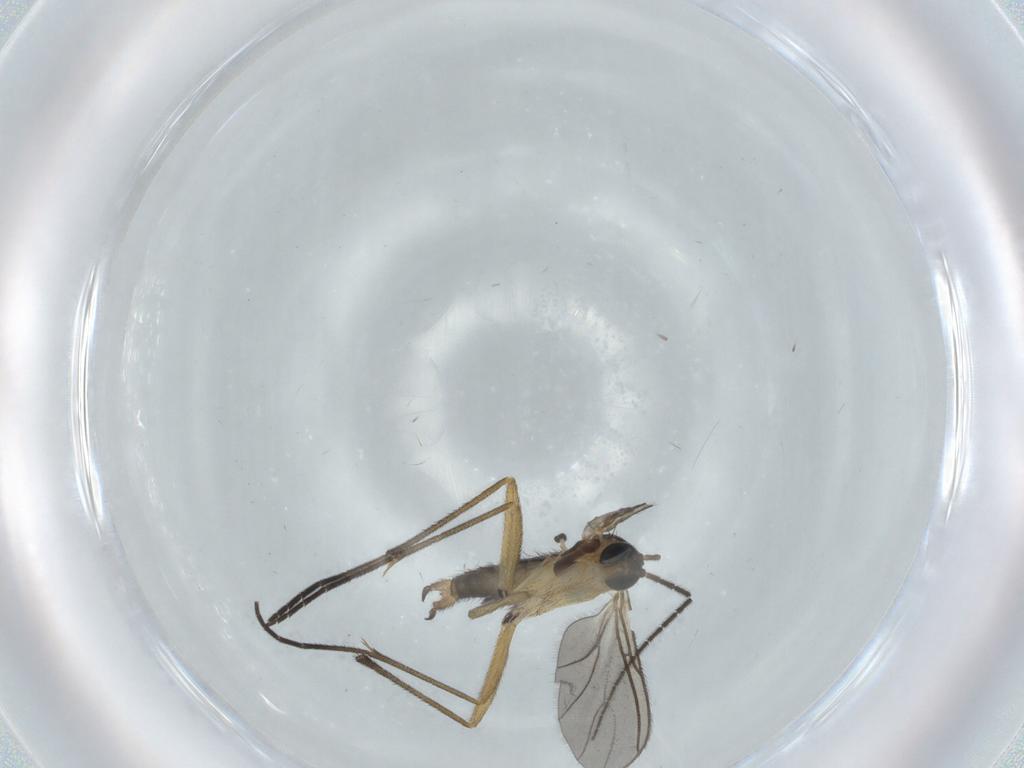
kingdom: Animalia
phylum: Arthropoda
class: Insecta
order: Diptera
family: Sciaridae
